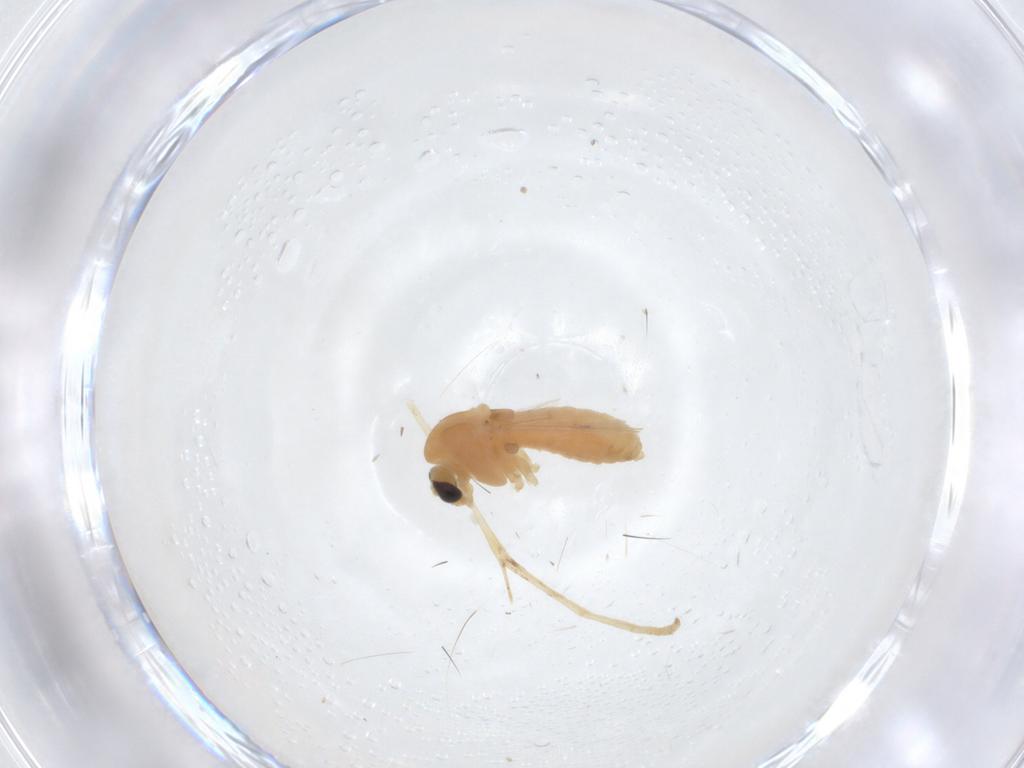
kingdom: Animalia
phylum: Arthropoda
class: Insecta
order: Diptera
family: Chironomidae
